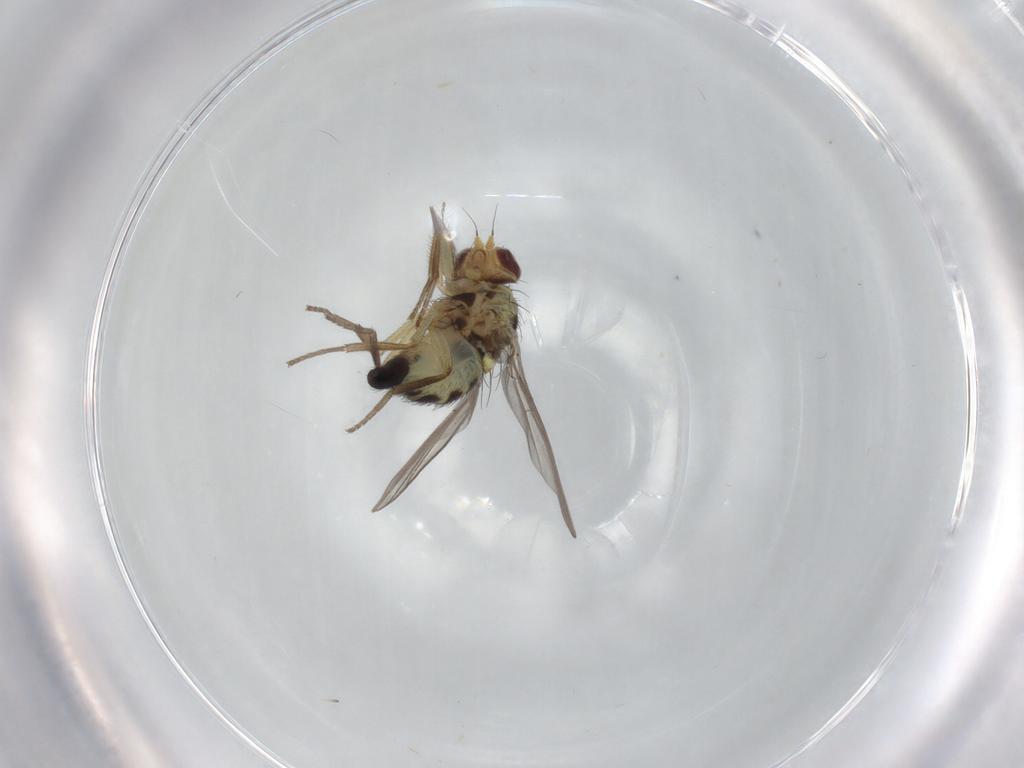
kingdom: Animalia
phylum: Arthropoda
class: Insecta
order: Diptera
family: Agromyzidae
